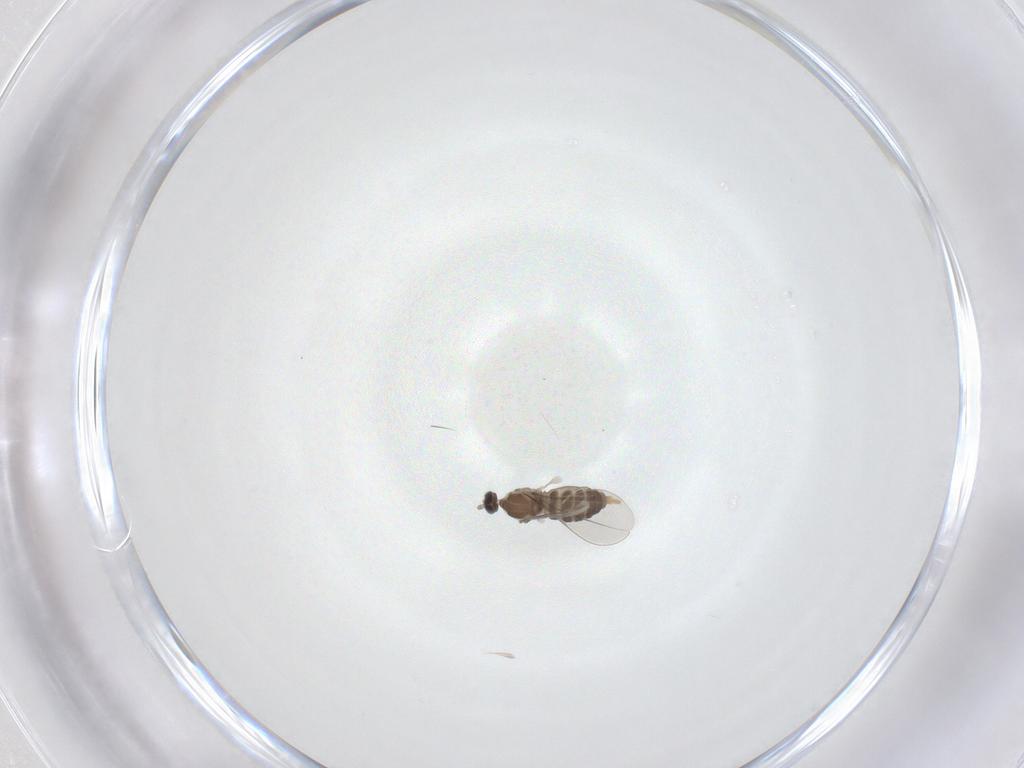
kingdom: Animalia
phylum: Arthropoda
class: Insecta
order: Diptera
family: Cecidomyiidae
